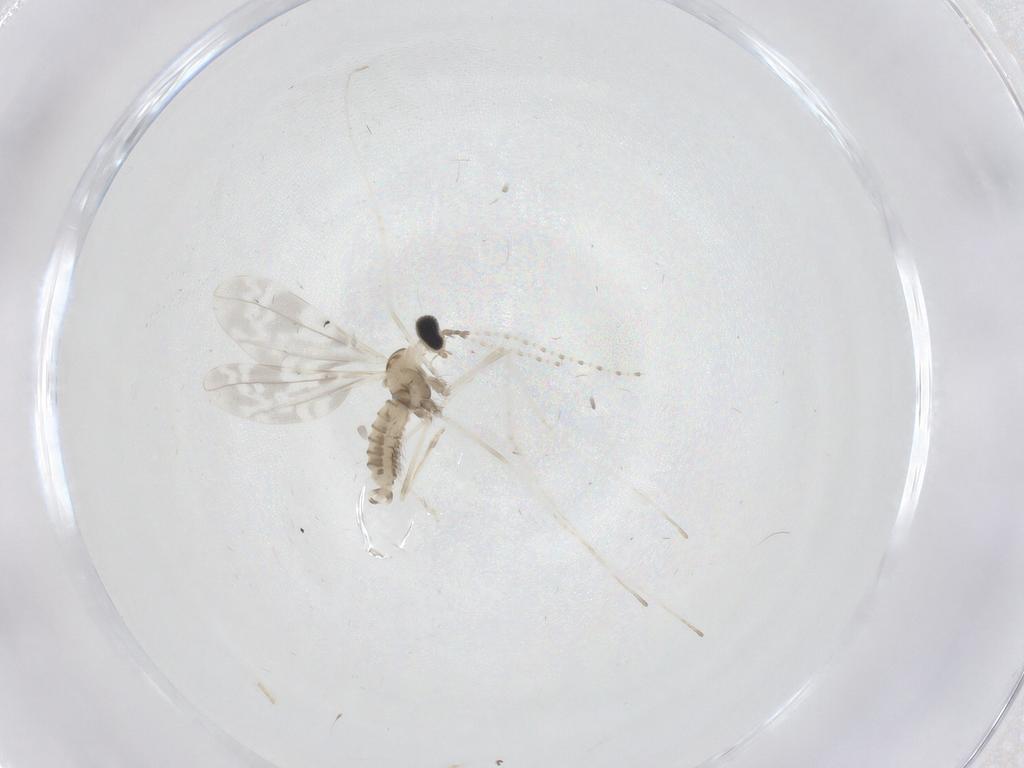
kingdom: Animalia
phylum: Arthropoda
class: Insecta
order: Diptera
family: Cecidomyiidae
